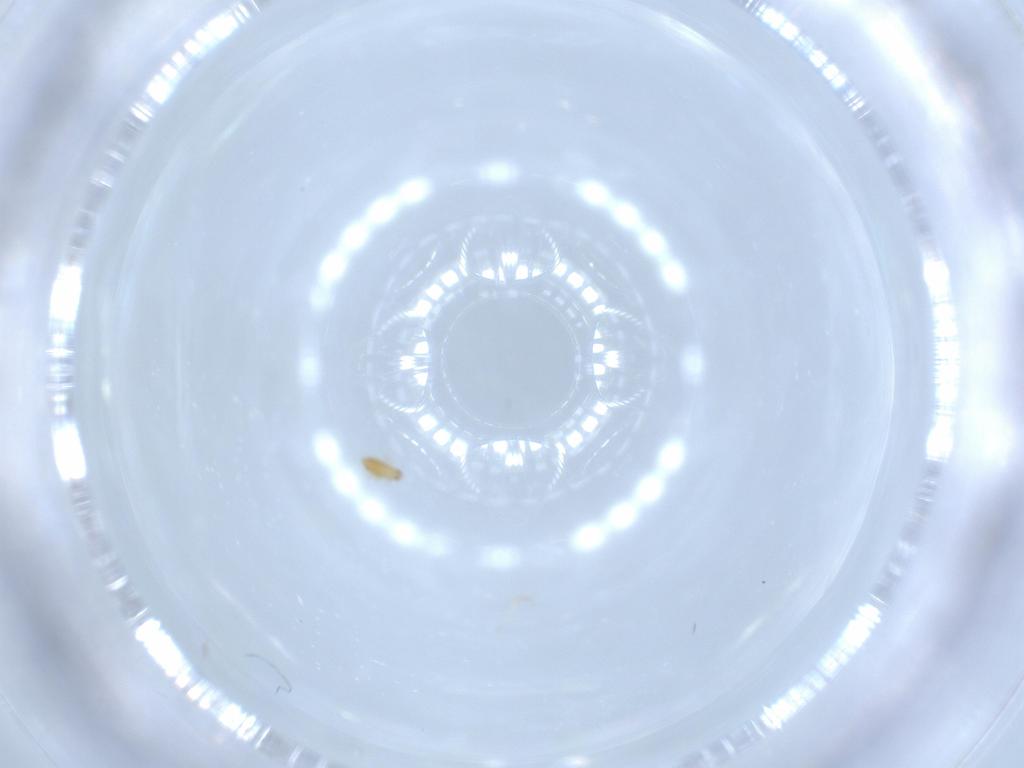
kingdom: Animalia
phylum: Arthropoda
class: Insecta
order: Coleoptera
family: Ripiphoridae
